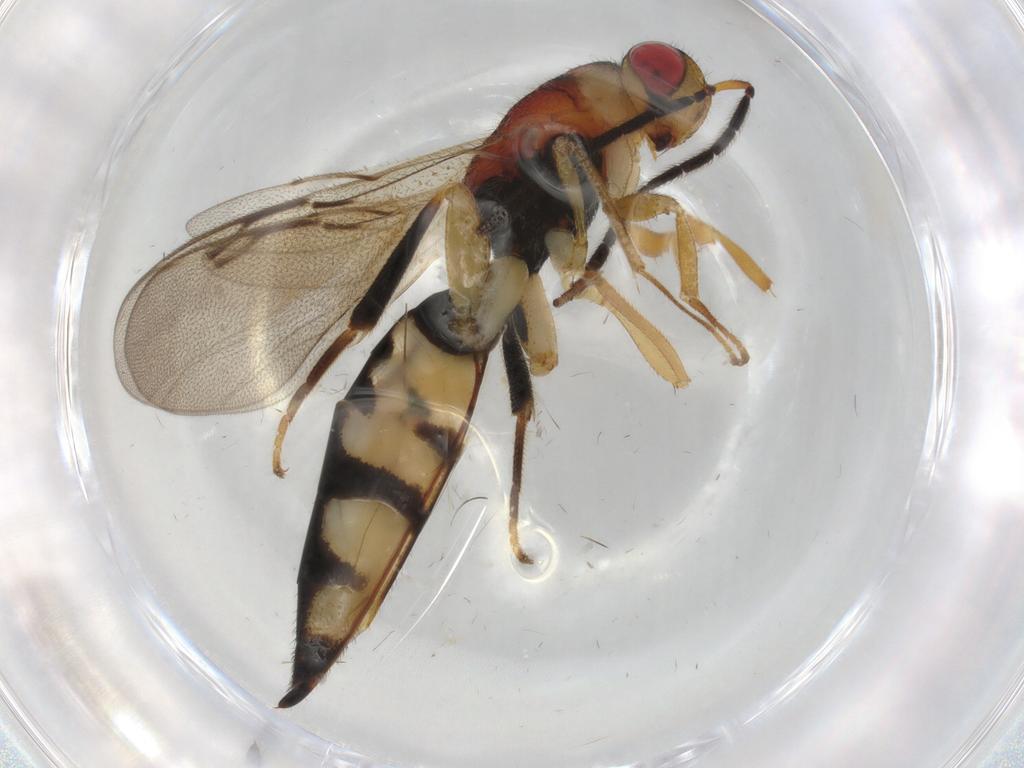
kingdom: Animalia
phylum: Arthropoda
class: Insecta
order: Hymenoptera
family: Eurytomidae
